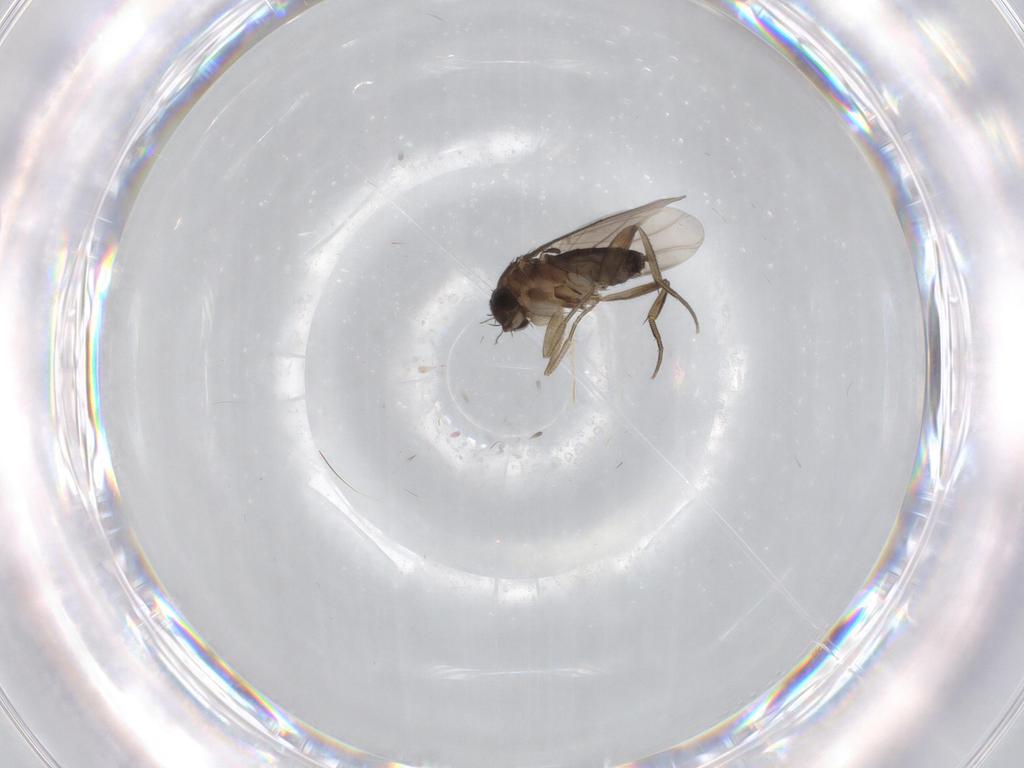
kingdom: Animalia
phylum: Arthropoda
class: Insecta
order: Diptera
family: Phoridae
